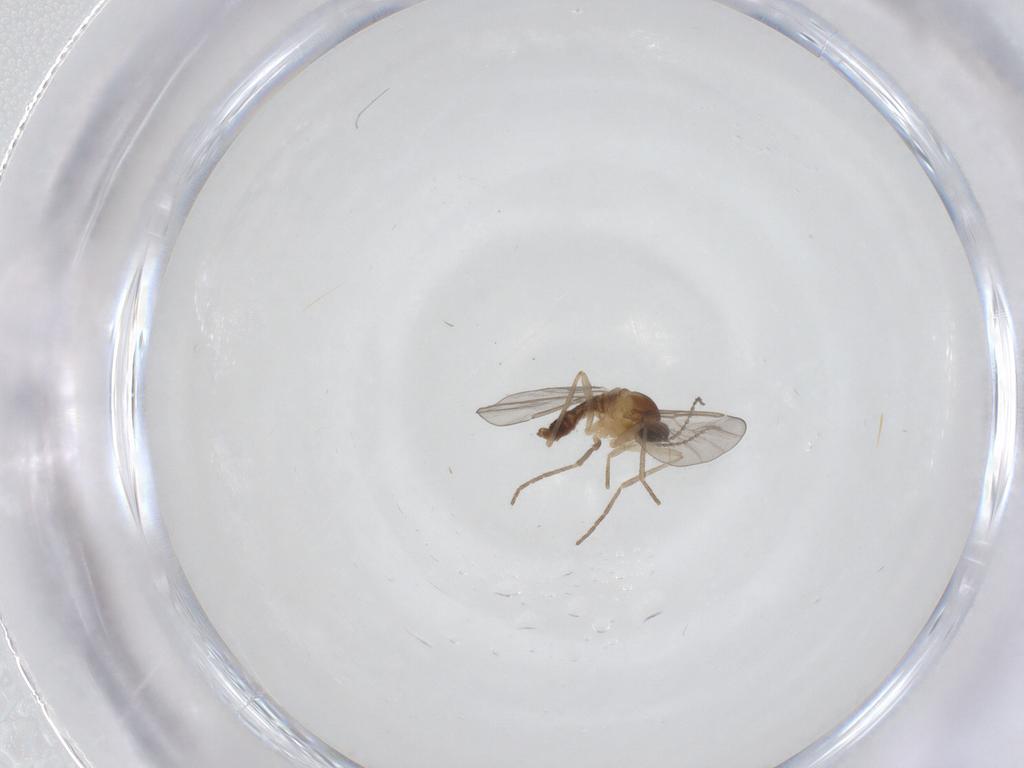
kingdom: Animalia
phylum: Arthropoda
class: Insecta
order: Diptera
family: Cecidomyiidae
